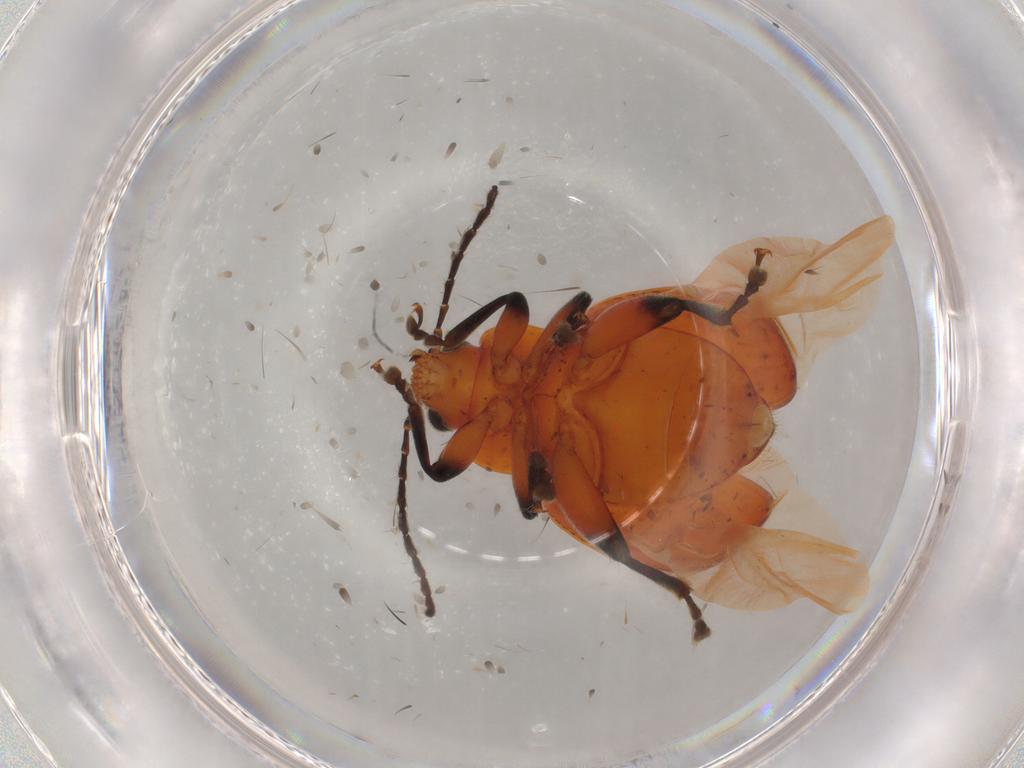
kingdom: Animalia
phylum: Arthropoda
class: Insecta
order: Coleoptera
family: Chrysomelidae
